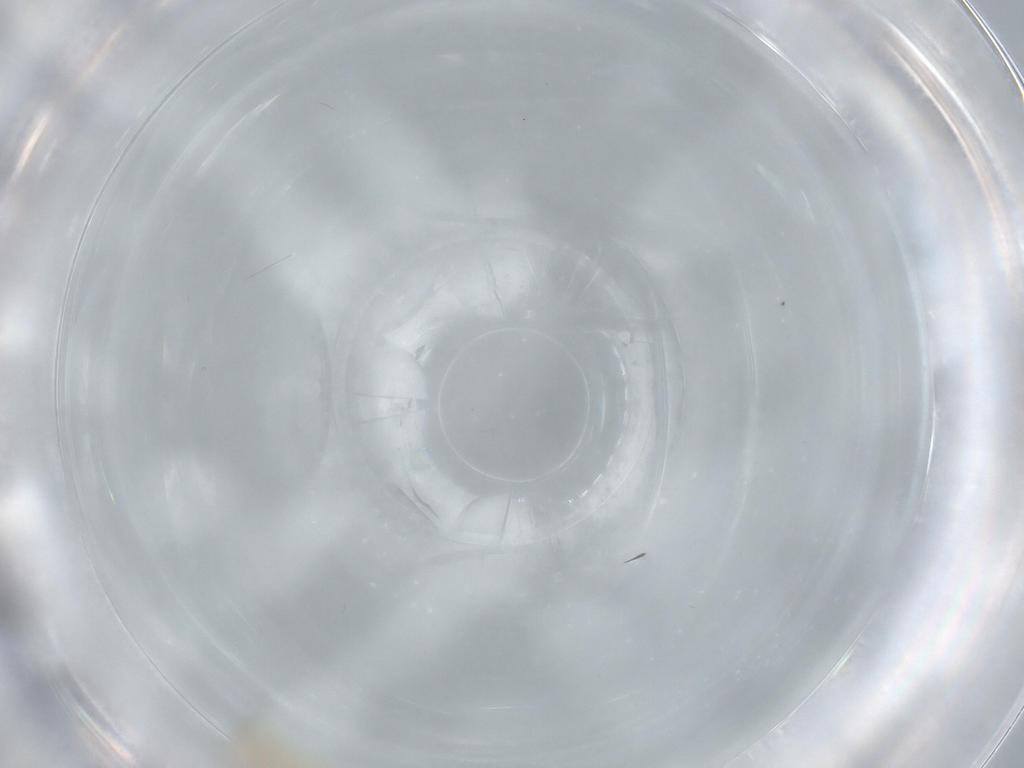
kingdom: Animalia
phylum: Arthropoda
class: Insecta
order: Diptera
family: Sciaridae
